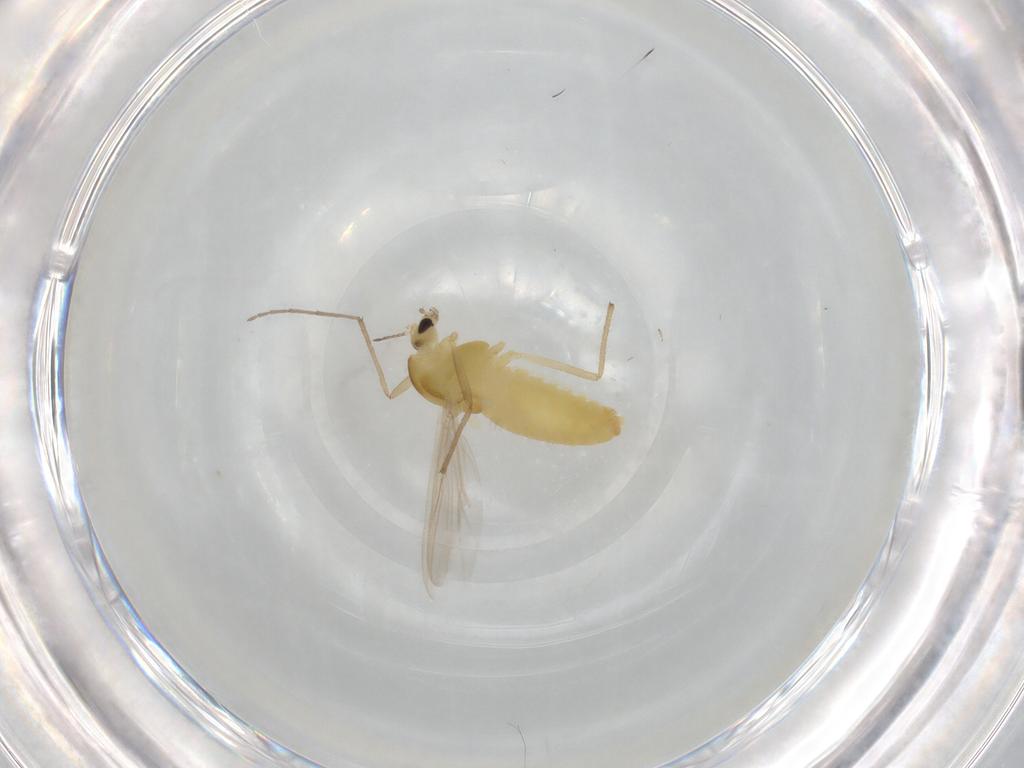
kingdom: Animalia
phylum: Arthropoda
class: Insecta
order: Diptera
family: Chironomidae
